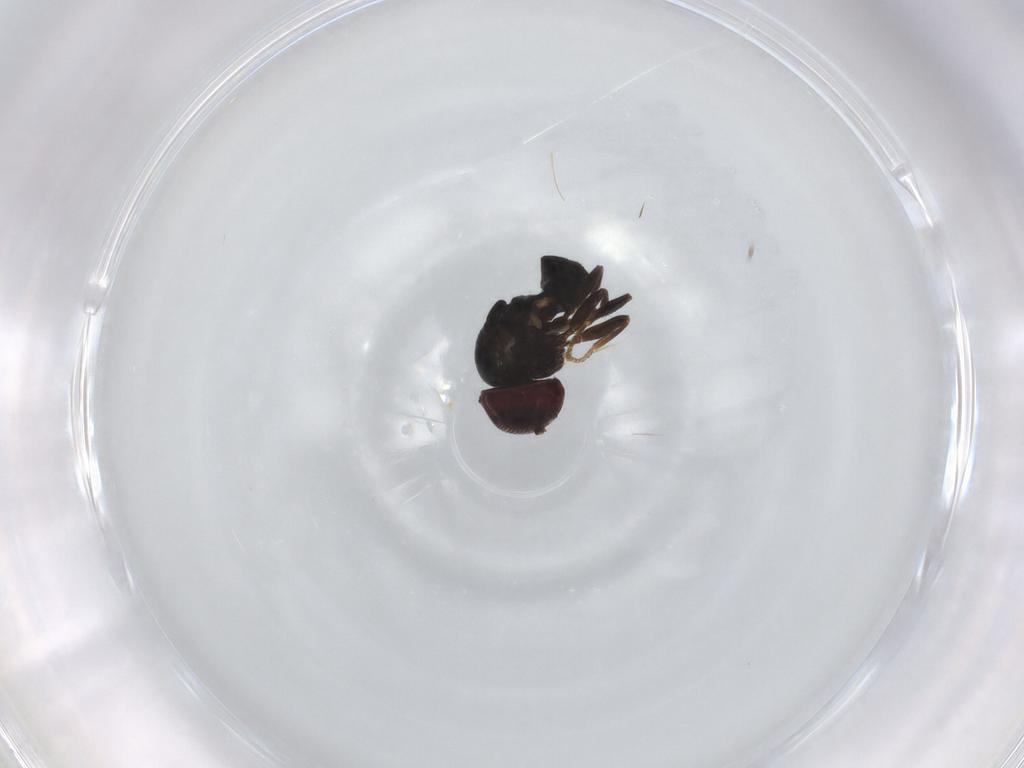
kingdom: Animalia
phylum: Arthropoda
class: Insecta
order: Diptera
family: Pipunculidae
